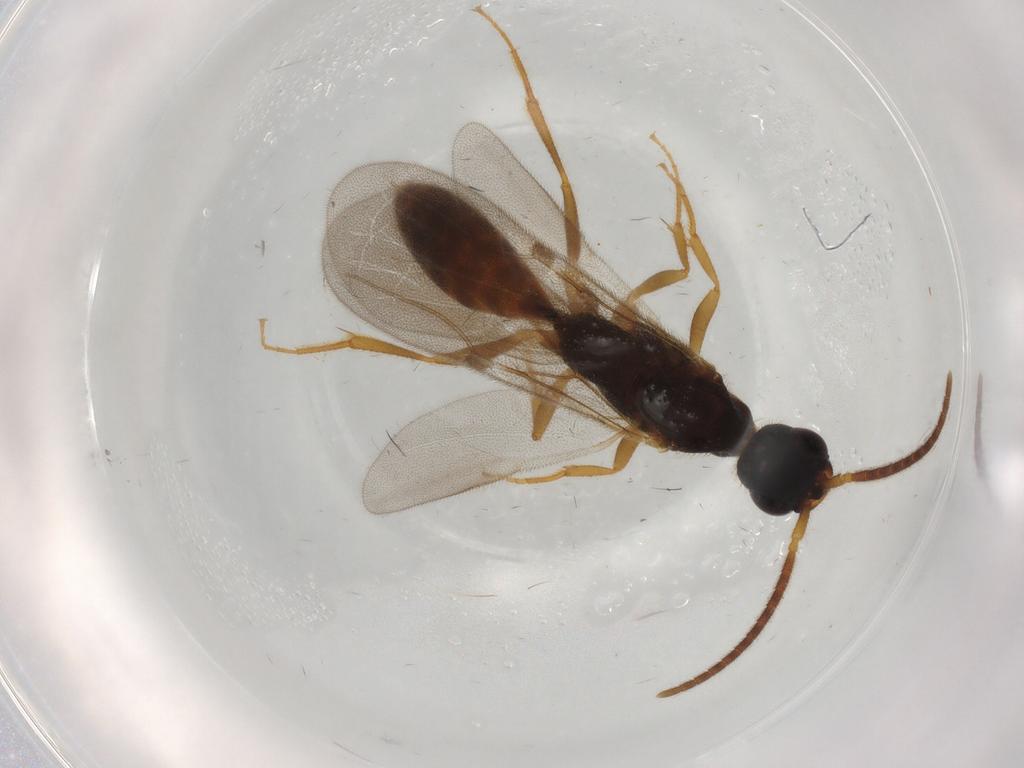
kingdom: Animalia
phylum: Arthropoda
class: Insecta
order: Hymenoptera
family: Bethylidae
